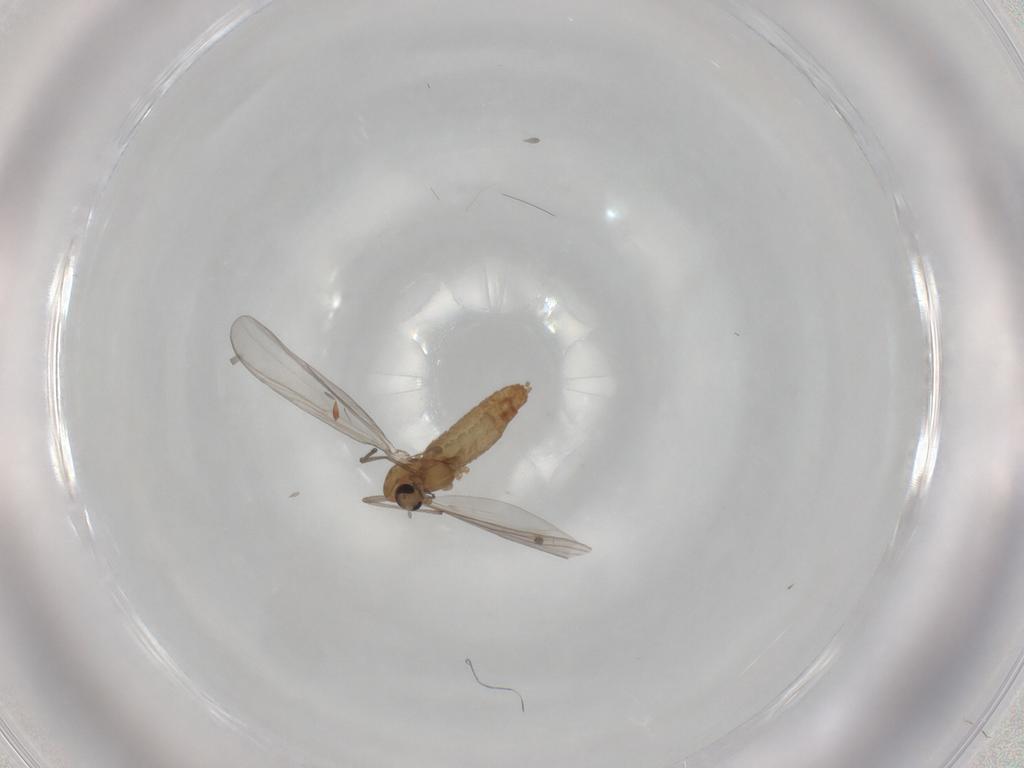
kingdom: Animalia
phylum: Arthropoda
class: Insecta
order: Diptera
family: Chironomidae
